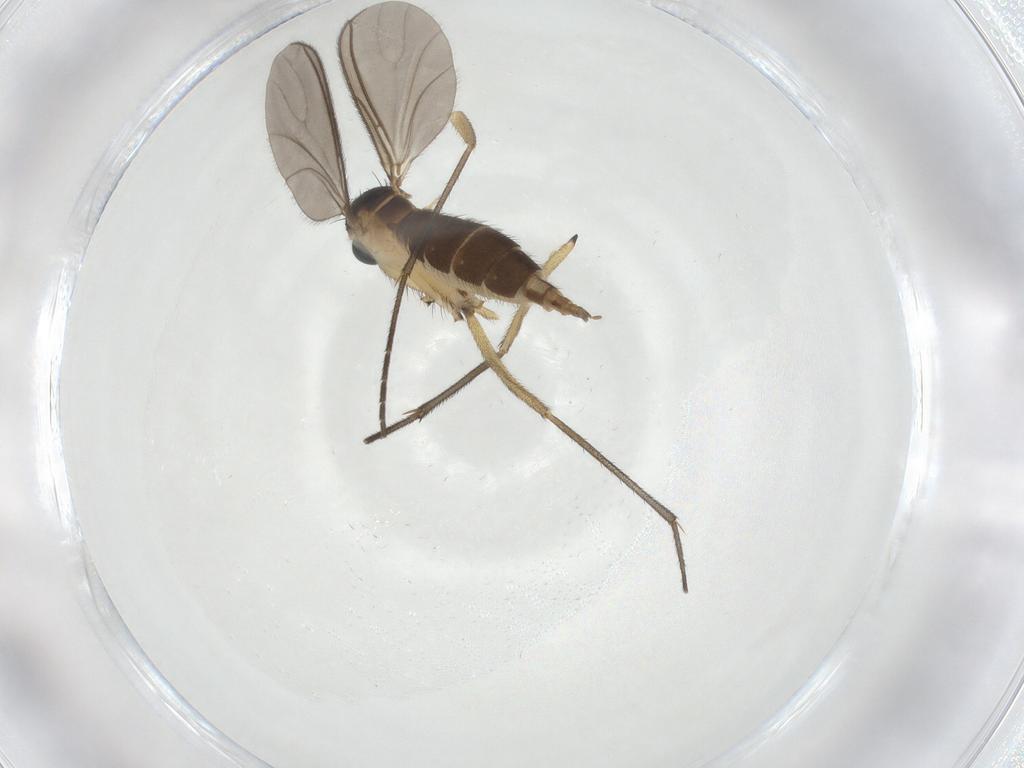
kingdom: Animalia
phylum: Arthropoda
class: Insecta
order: Diptera
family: Sciaridae
